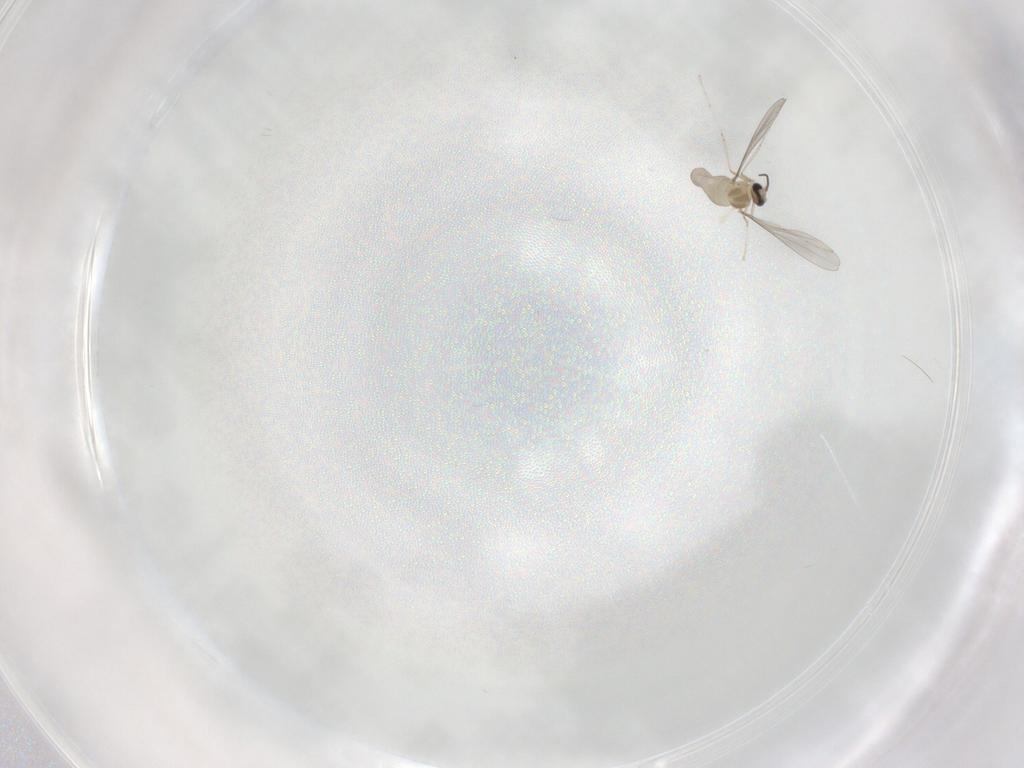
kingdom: Animalia
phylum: Arthropoda
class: Insecta
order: Diptera
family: Cecidomyiidae
